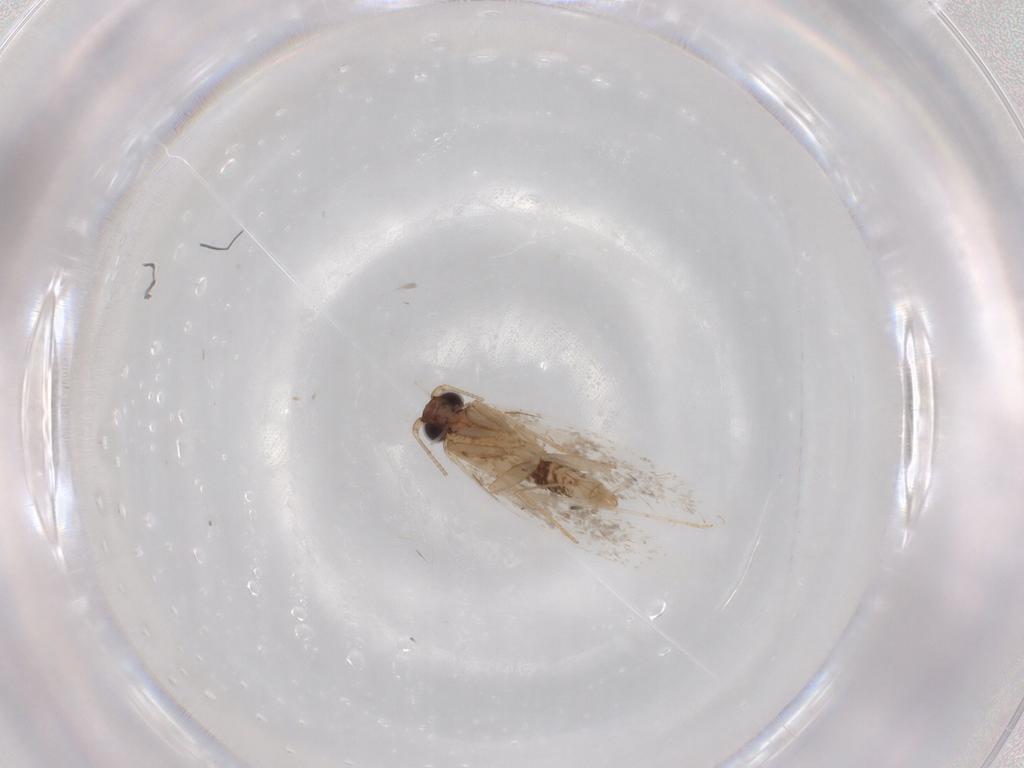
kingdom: Animalia
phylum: Arthropoda
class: Insecta
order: Lepidoptera
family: Tineidae
